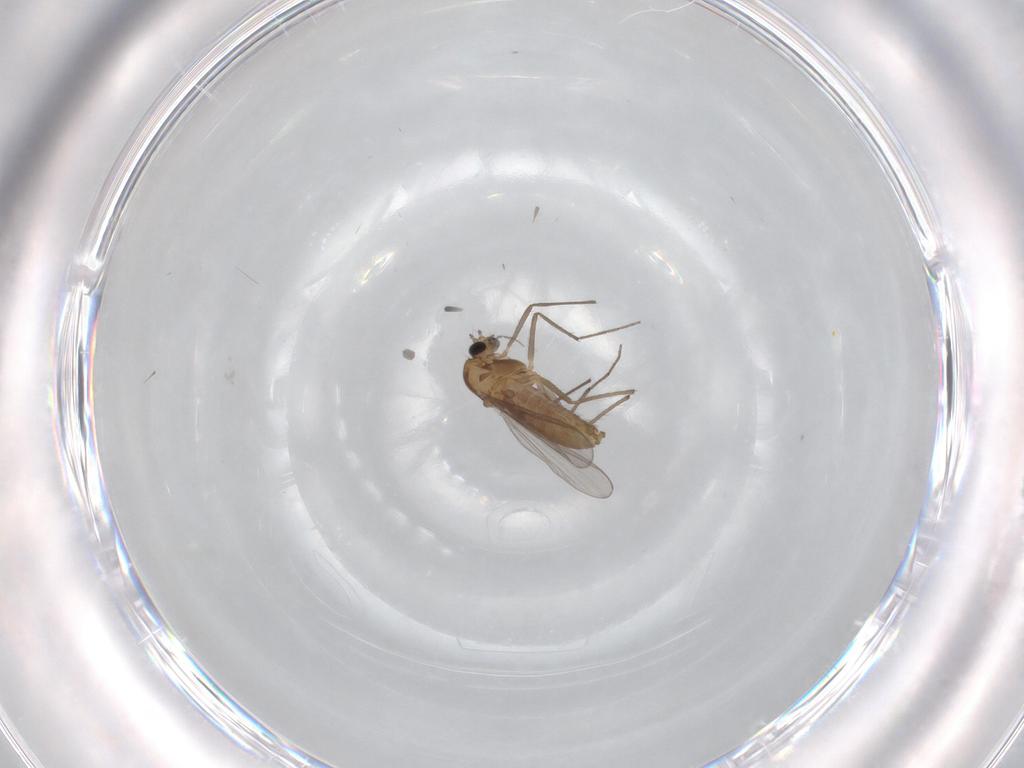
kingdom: Animalia
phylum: Arthropoda
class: Insecta
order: Diptera
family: Chironomidae
